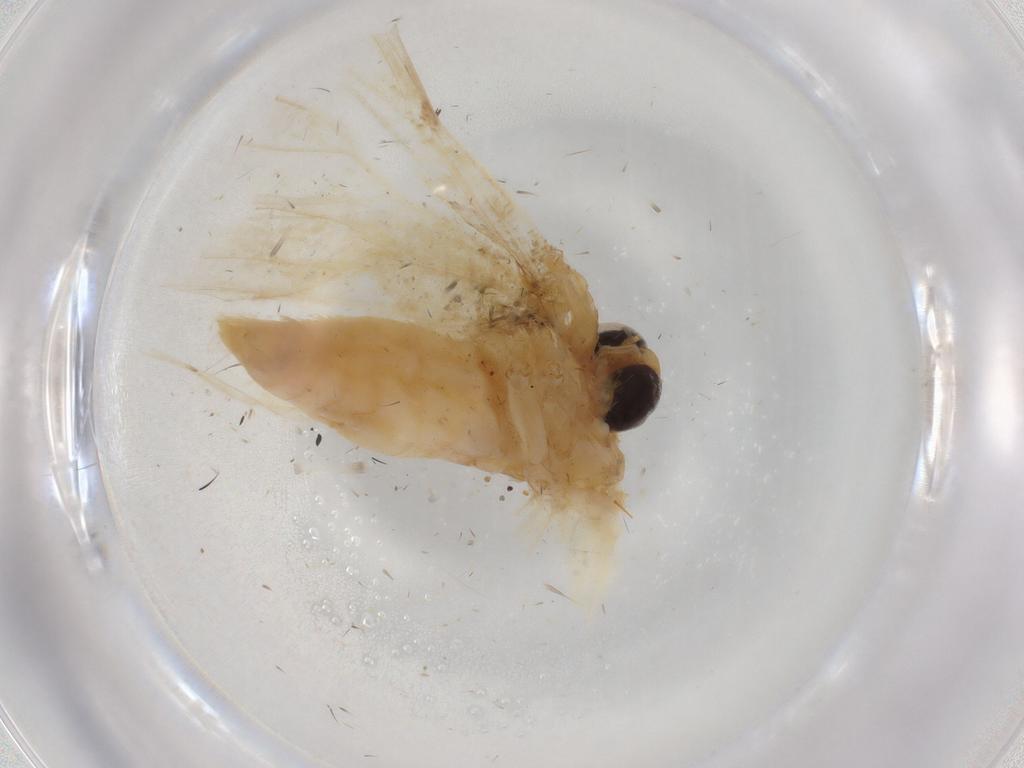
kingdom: Animalia
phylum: Arthropoda
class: Insecta
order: Lepidoptera
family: Geometridae
